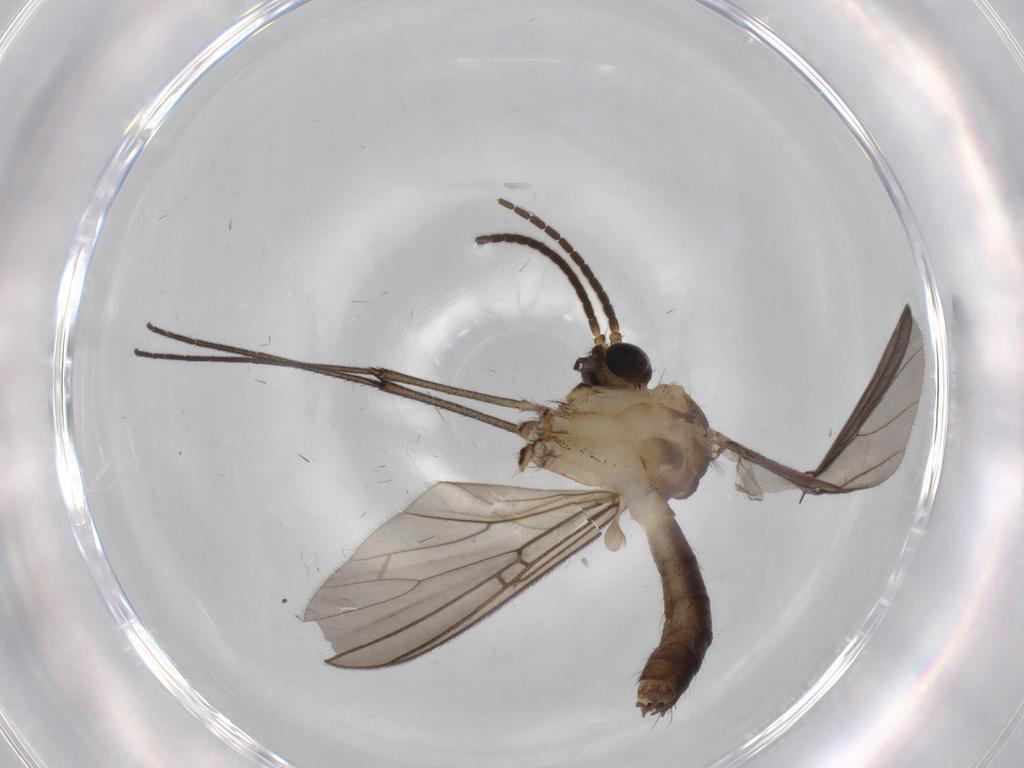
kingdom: Animalia
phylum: Arthropoda
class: Insecta
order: Diptera
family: Sciaridae
